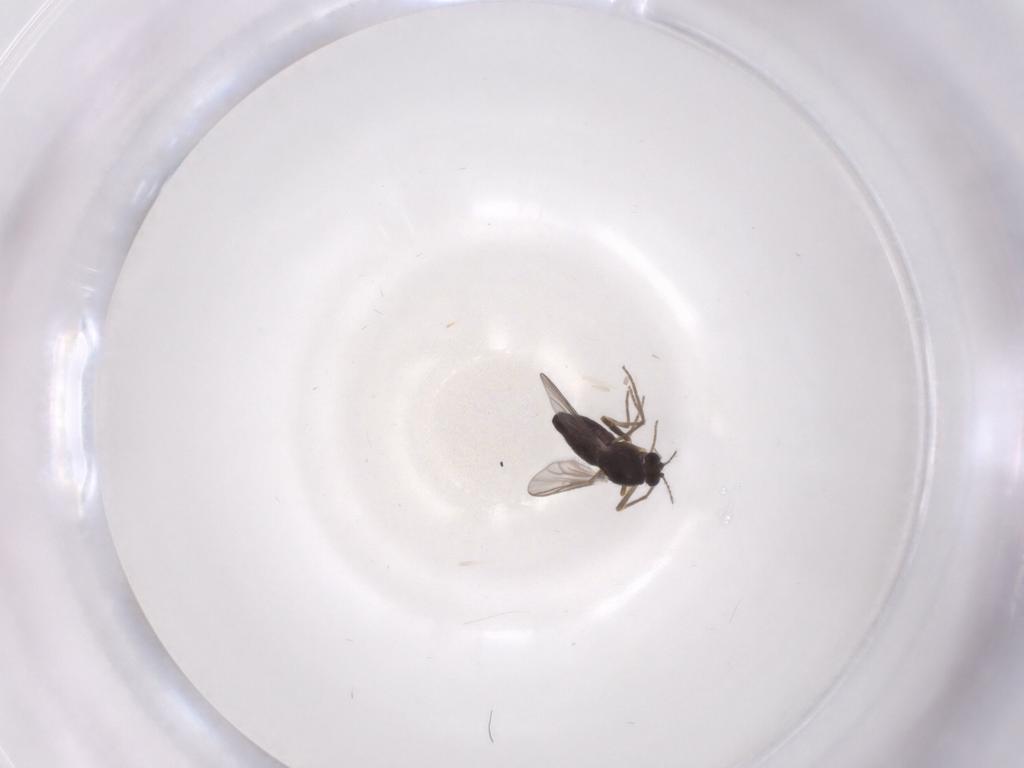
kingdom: Animalia
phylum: Arthropoda
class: Insecta
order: Diptera
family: Chironomidae
